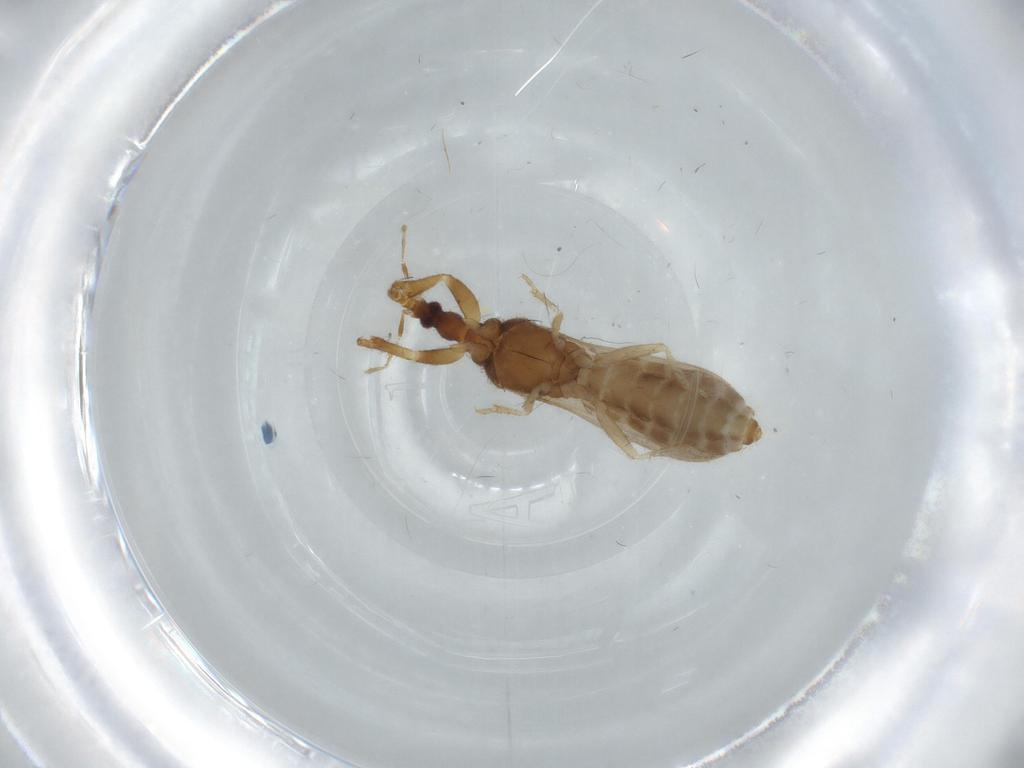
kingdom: Animalia
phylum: Arthropoda
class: Insecta
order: Hemiptera
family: Enicocephalidae
